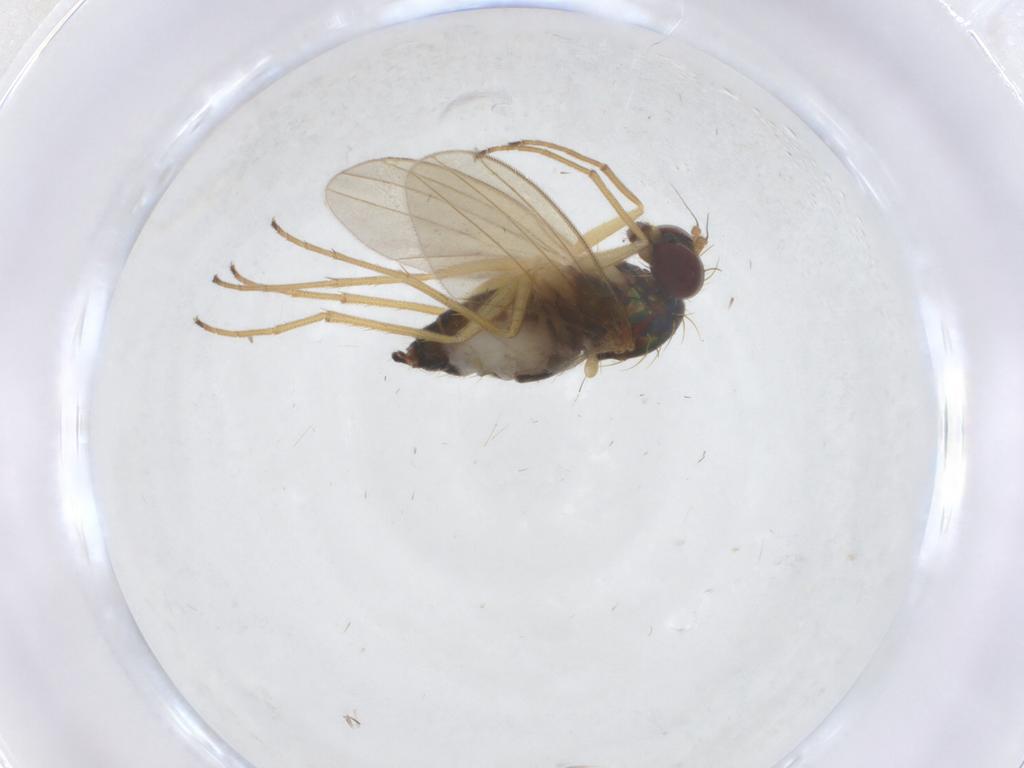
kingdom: Animalia
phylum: Arthropoda
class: Insecta
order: Diptera
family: Dolichopodidae
